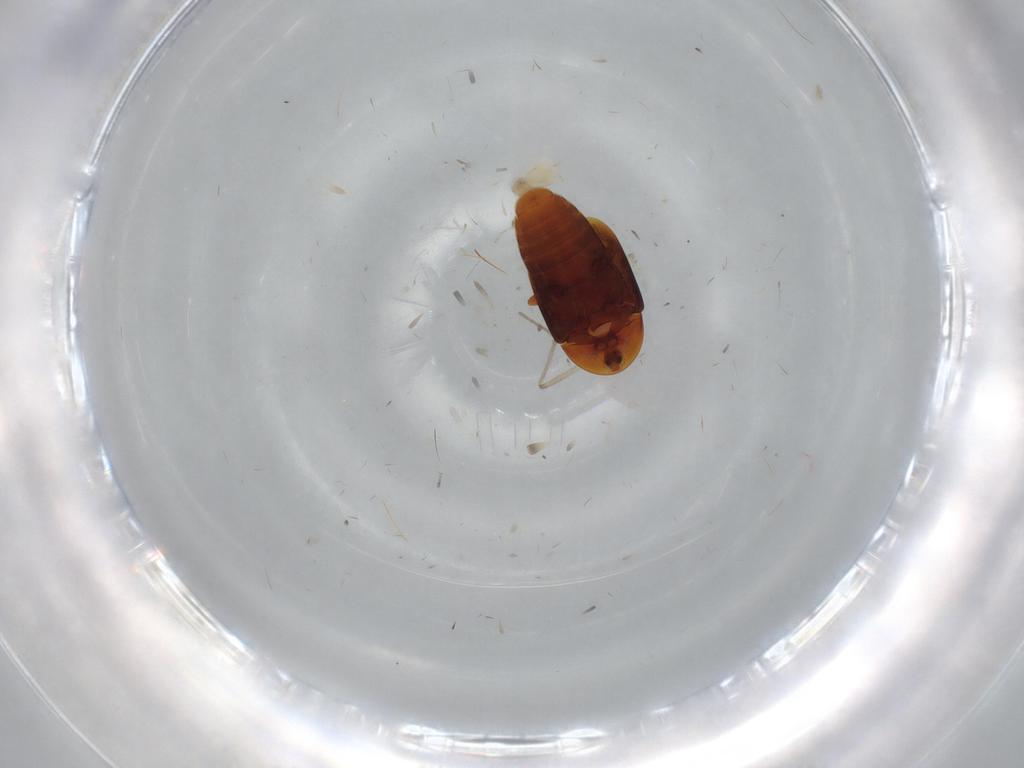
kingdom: Animalia
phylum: Arthropoda
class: Insecta
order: Coleoptera
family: Corylophidae
